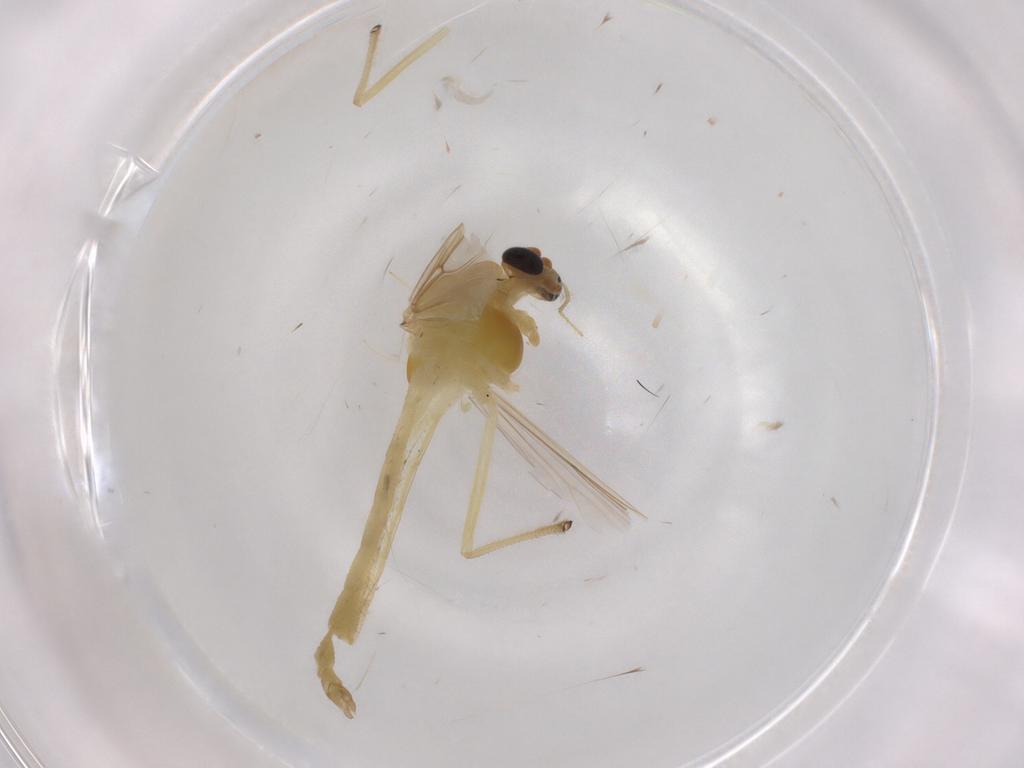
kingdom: Animalia
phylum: Arthropoda
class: Insecta
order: Diptera
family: Chironomidae
